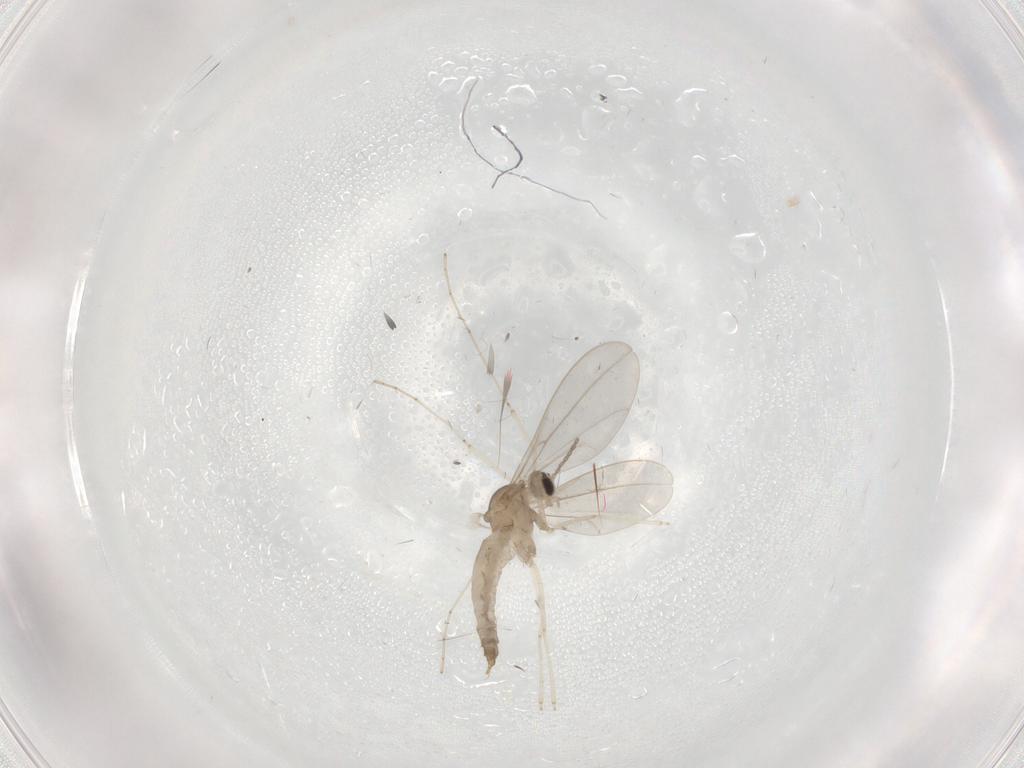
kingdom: Animalia
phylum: Arthropoda
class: Insecta
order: Diptera
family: Cecidomyiidae
